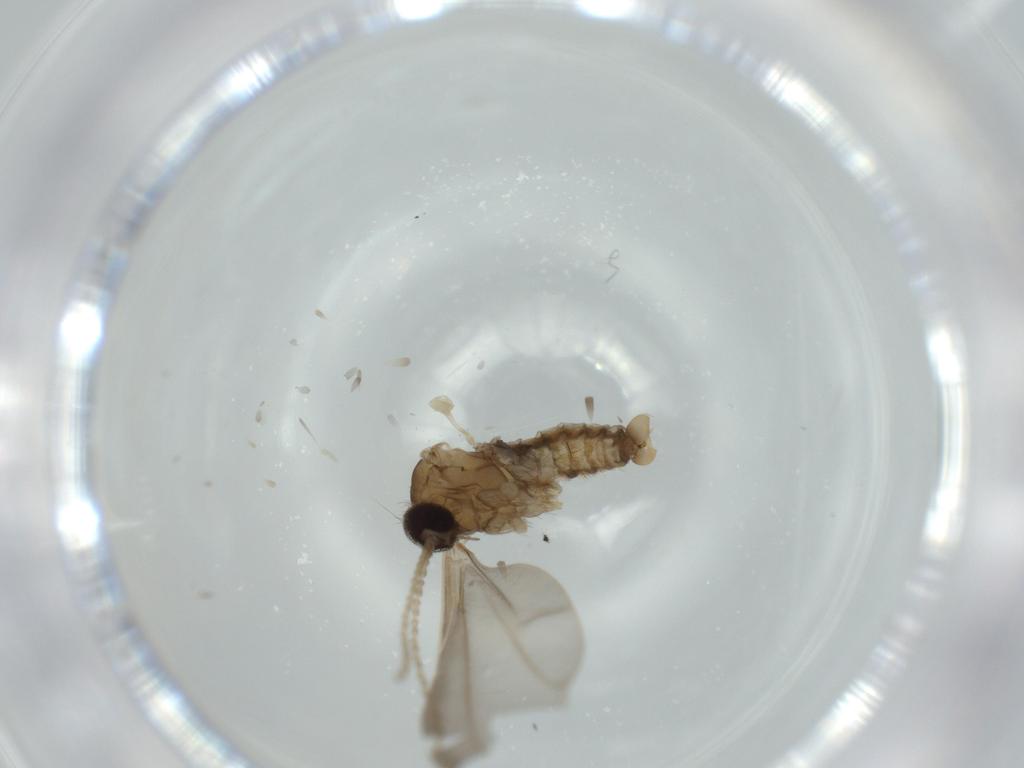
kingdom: Animalia
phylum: Arthropoda
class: Insecta
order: Diptera
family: Cecidomyiidae
